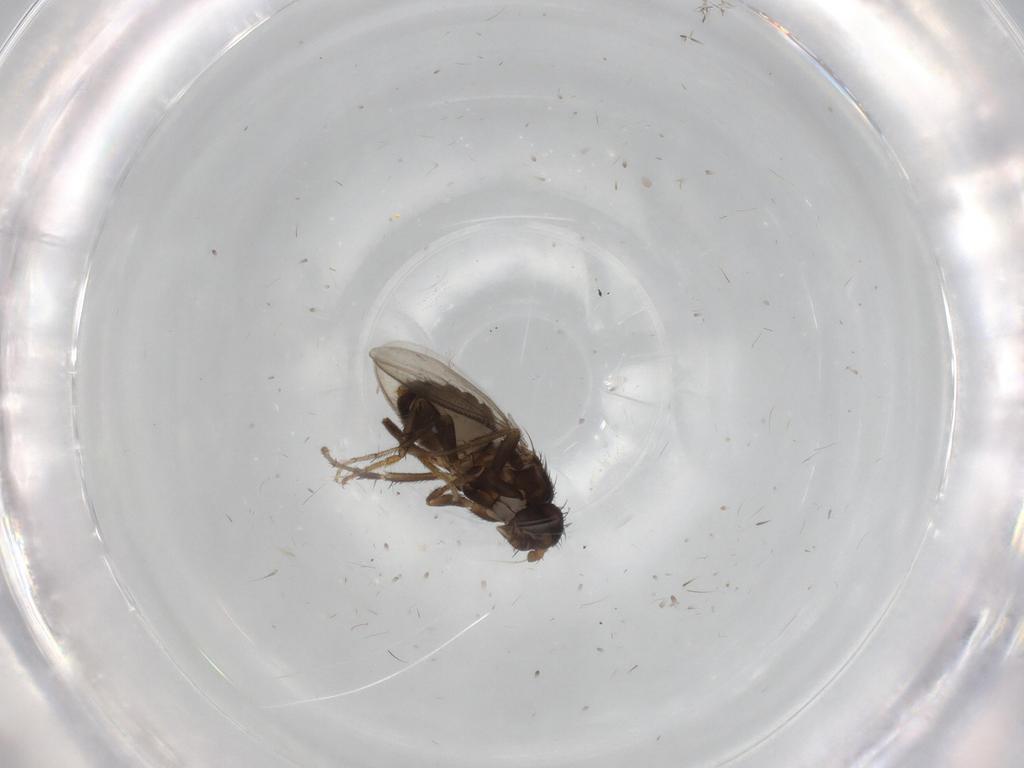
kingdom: Animalia
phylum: Arthropoda
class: Insecta
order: Diptera
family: Sphaeroceridae
